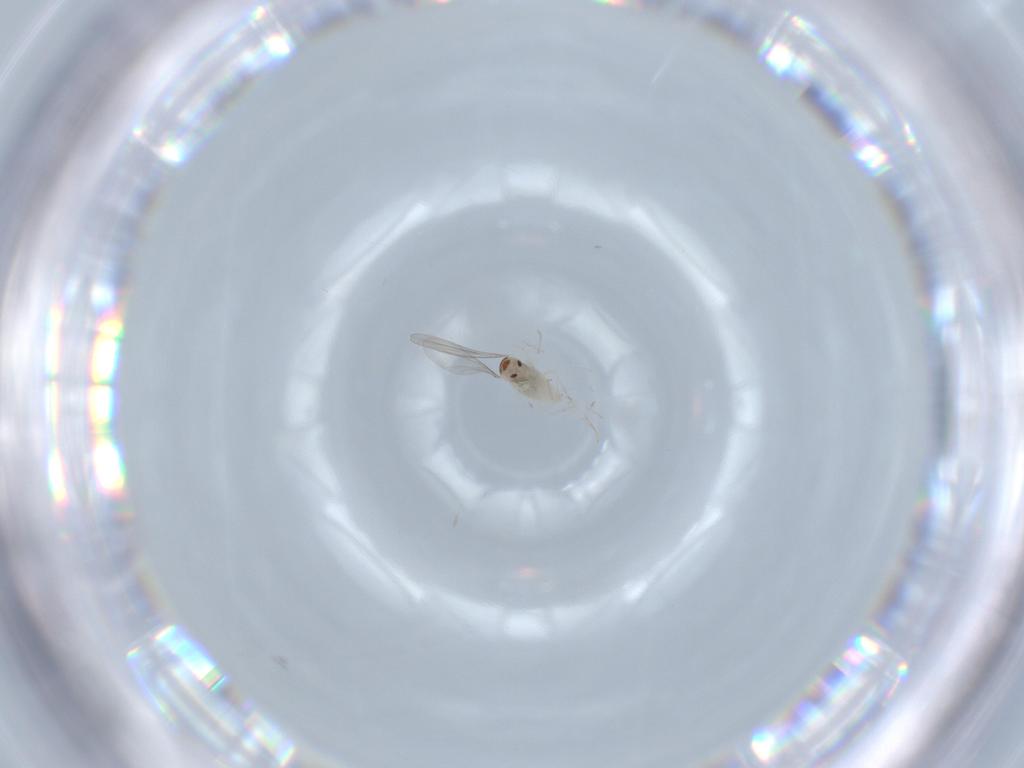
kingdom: Animalia
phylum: Arthropoda
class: Insecta
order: Diptera
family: Cecidomyiidae
